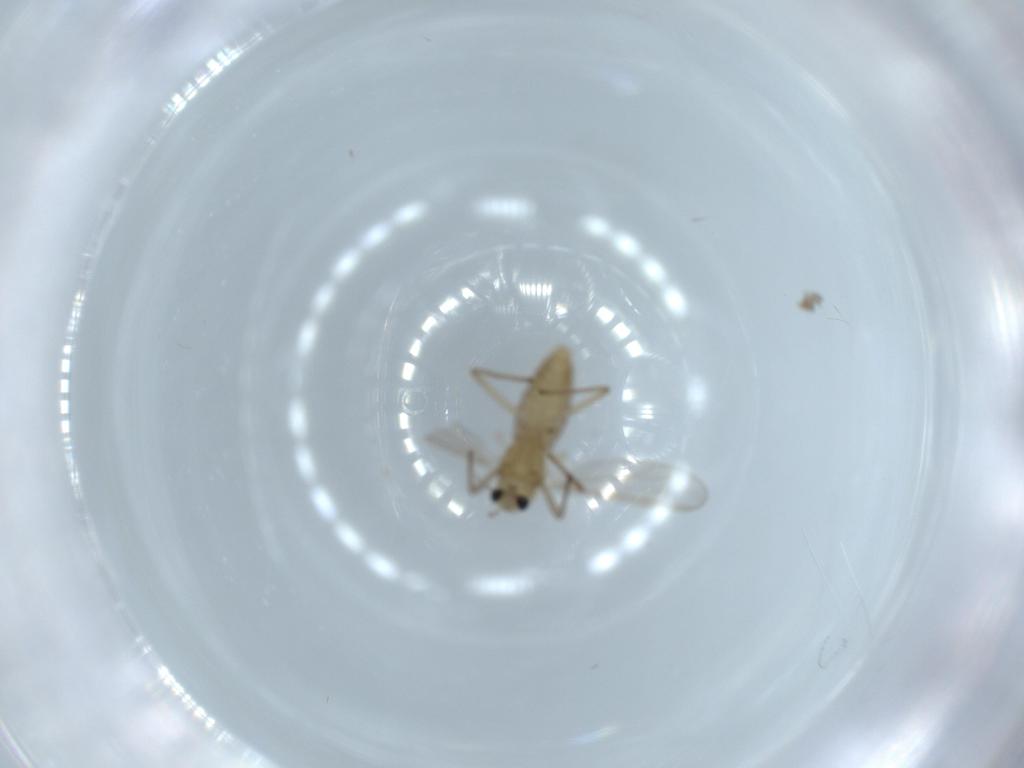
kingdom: Animalia
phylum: Arthropoda
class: Insecta
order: Diptera
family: Chironomidae
